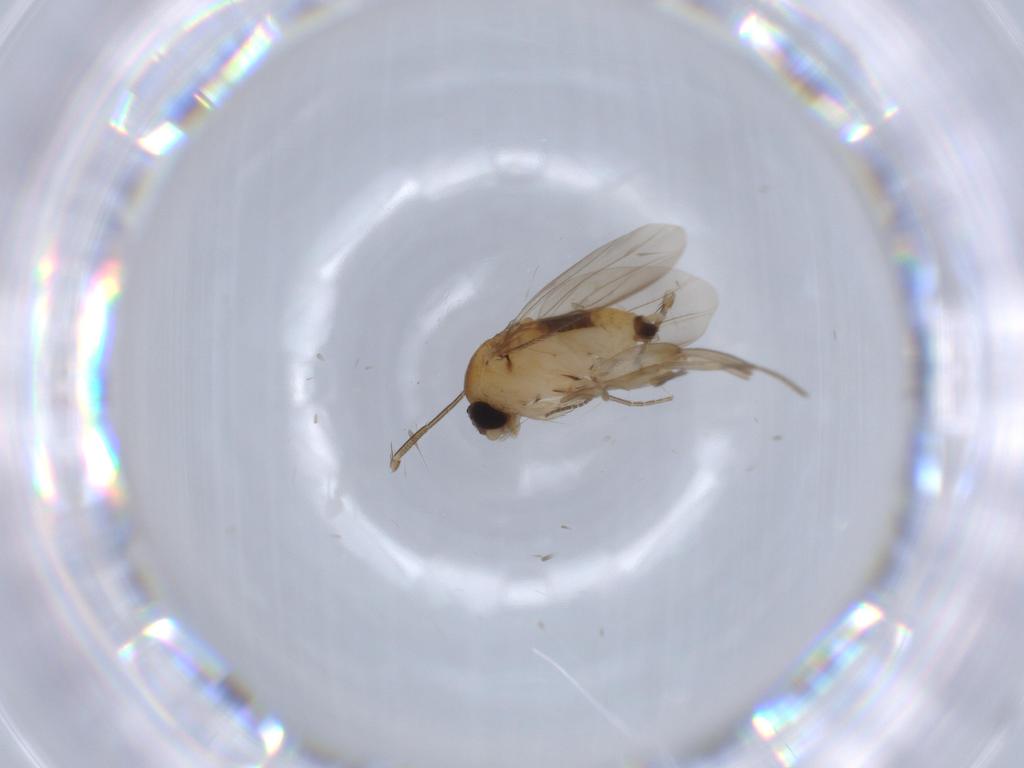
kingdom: Animalia
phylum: Arthropoda
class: Insecta
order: Diptera
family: Phoridae
